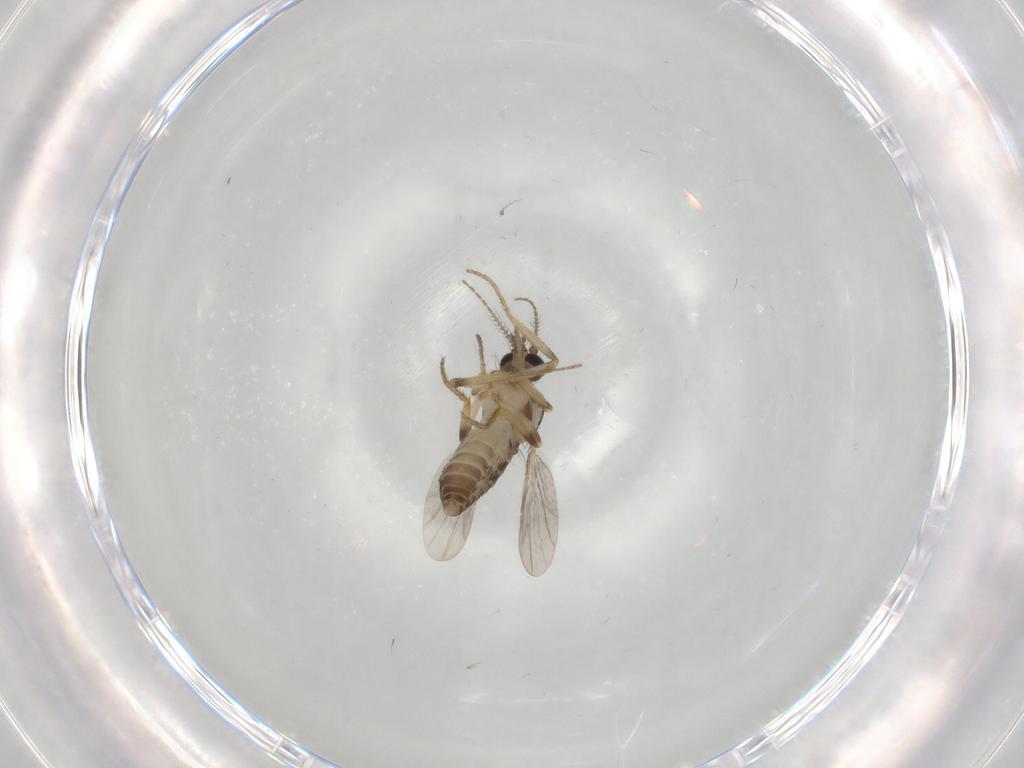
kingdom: Animalia
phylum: Arthropoda
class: Insecta
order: Diptera
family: Ceratopogonidae
